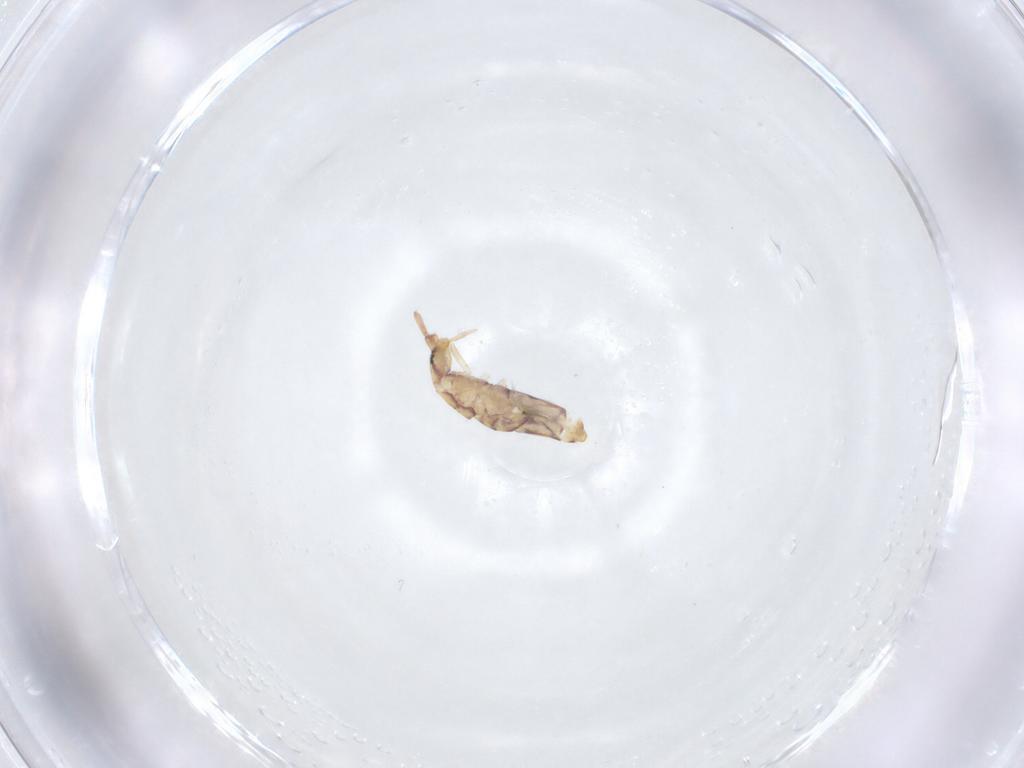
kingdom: Animalia
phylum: Arthropoda
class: Collembola
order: Entomobryomorpha
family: Entomobryidae
